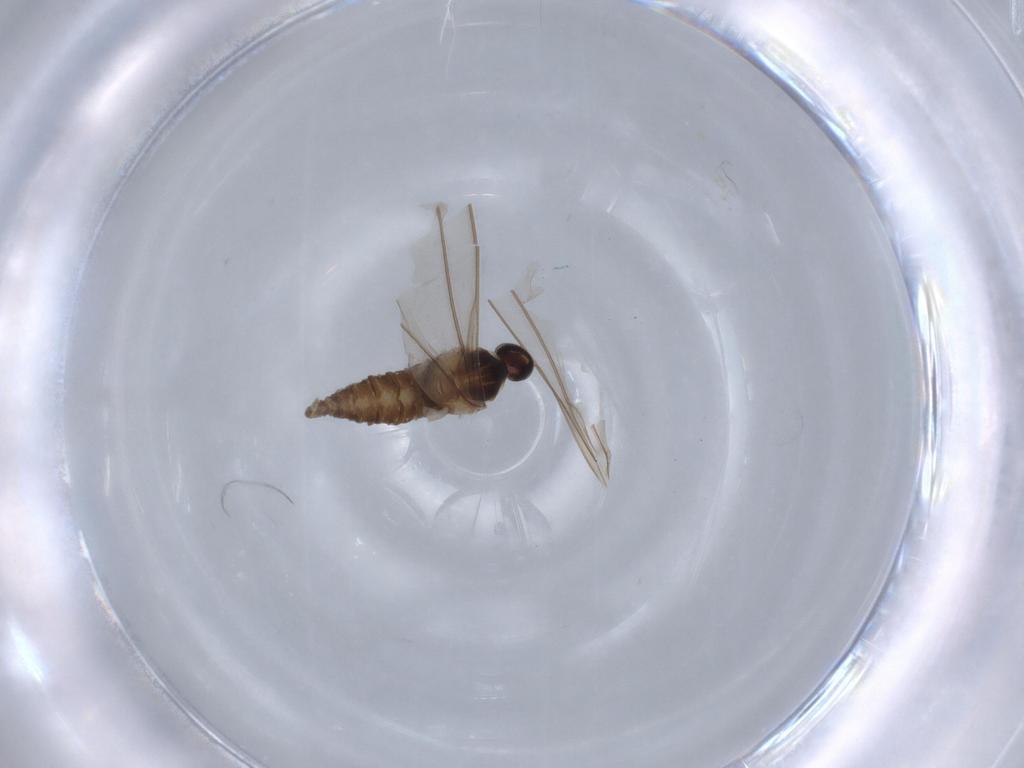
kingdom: Animalia
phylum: Arthropoda
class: Insecta
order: Diptera
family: Cecidomyiidae
